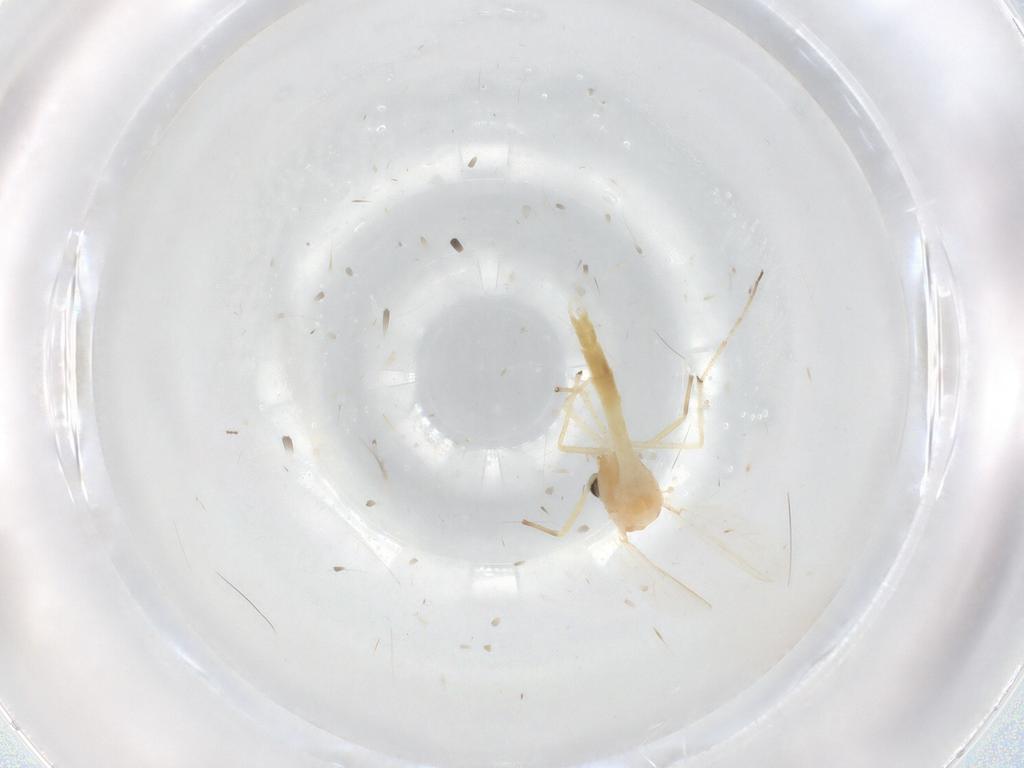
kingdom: Animalia
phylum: Arthropoda
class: Insecta
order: Diptera
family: Chironomidae
